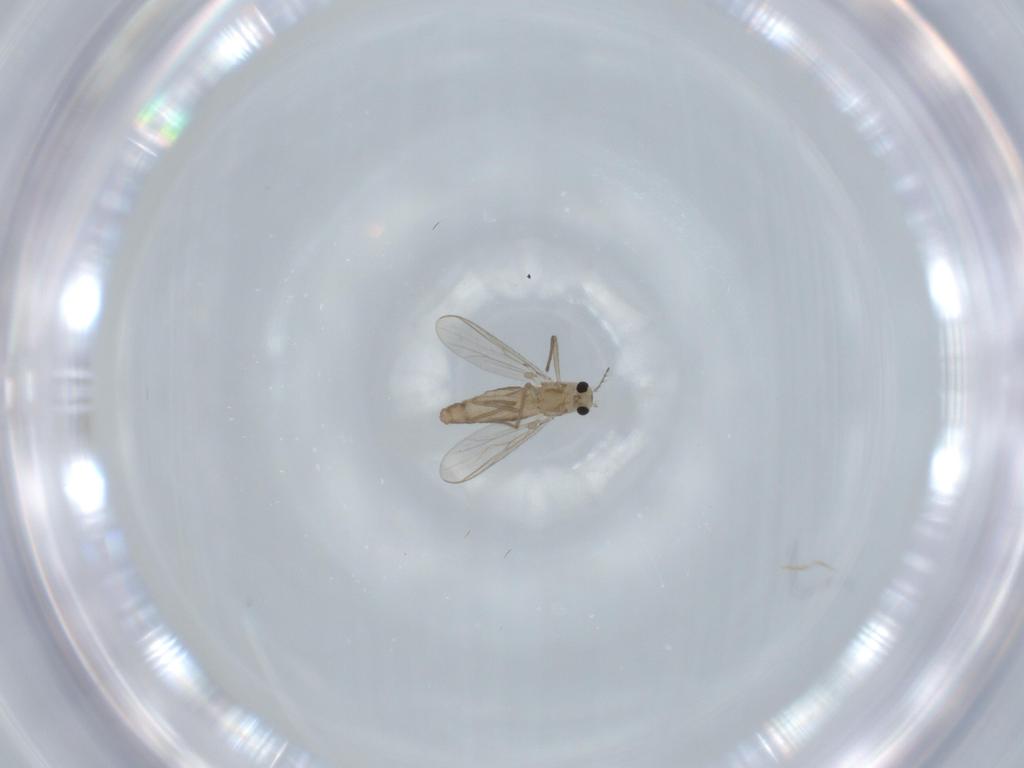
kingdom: Animalia
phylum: Arthropoda
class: Insecta
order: Diptera
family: Chironomidae
